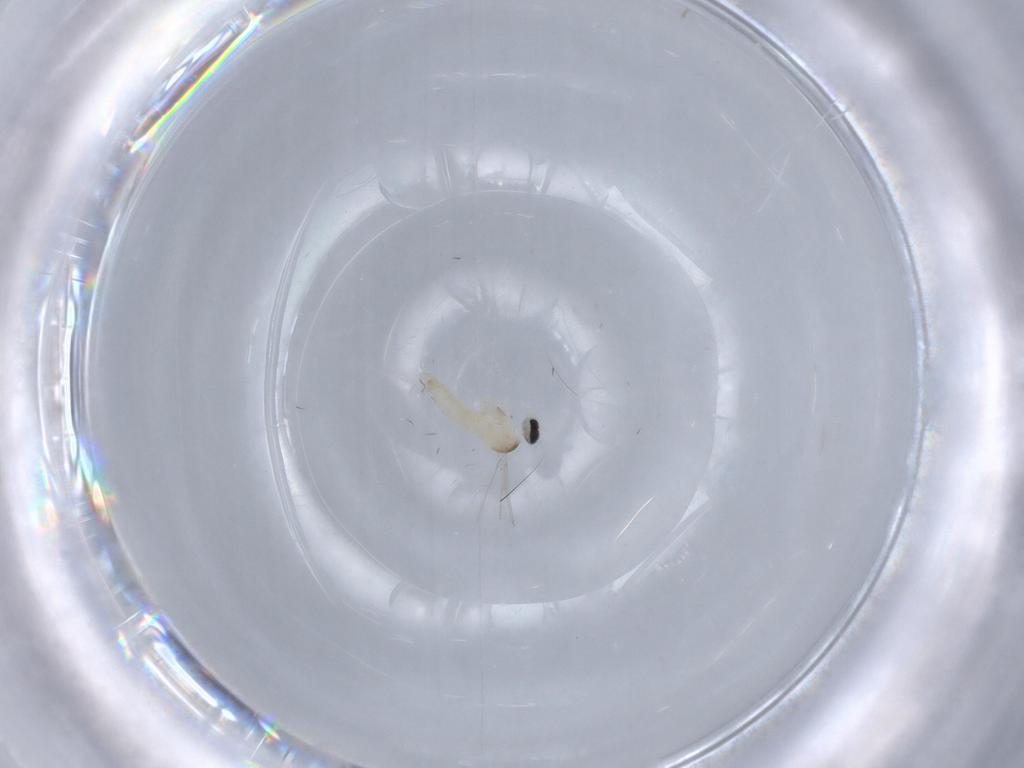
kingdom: Animalia
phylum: Arthropoda
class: Insecta
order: Diptera
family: Cecidomyiidae
